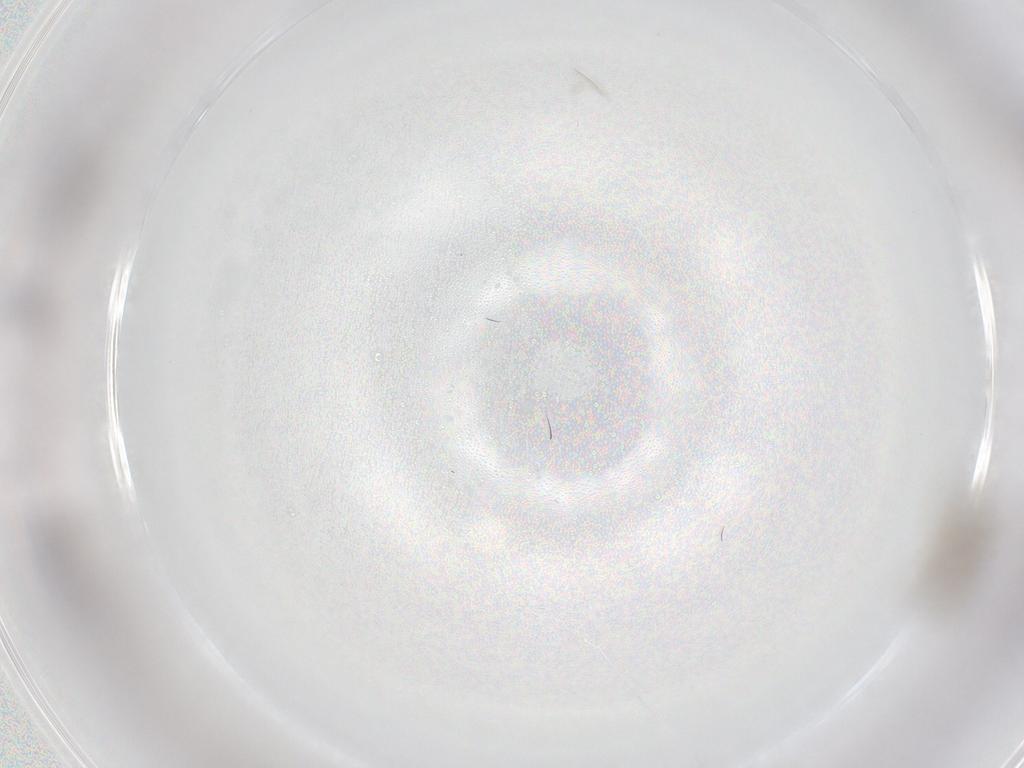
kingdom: Animalia
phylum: Arthropoda
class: Insecta
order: Diptera
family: Chironomidae
